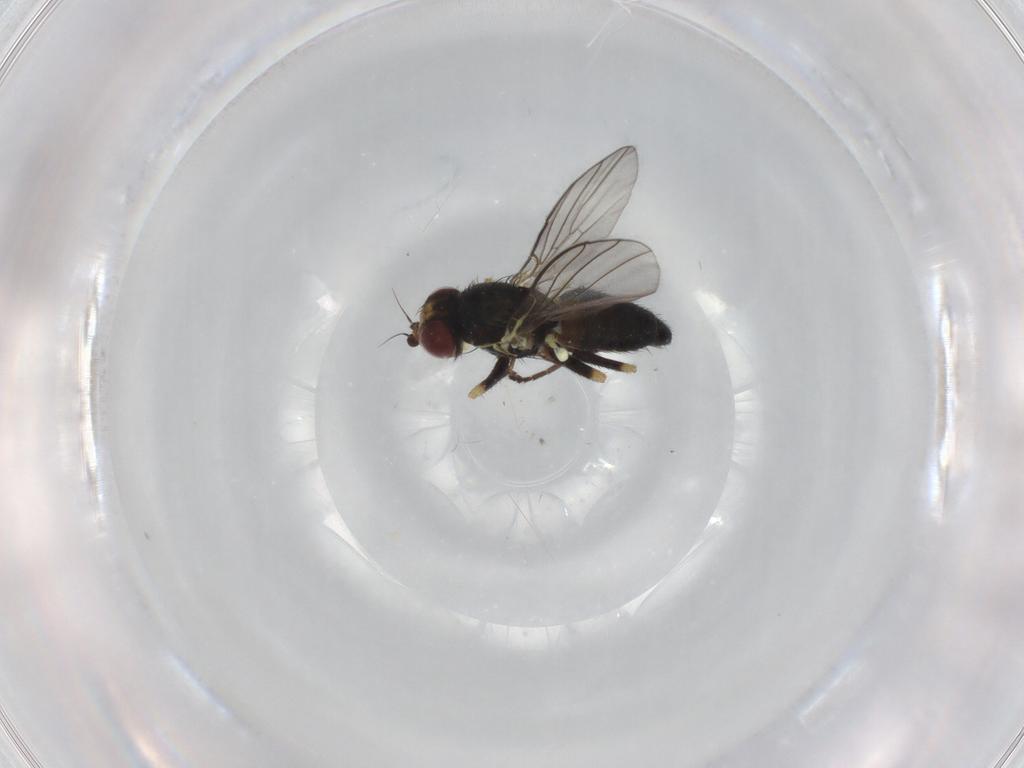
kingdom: Animalia
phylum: Arthropoda
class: Insecta
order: Diptera
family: Agromyzidae
